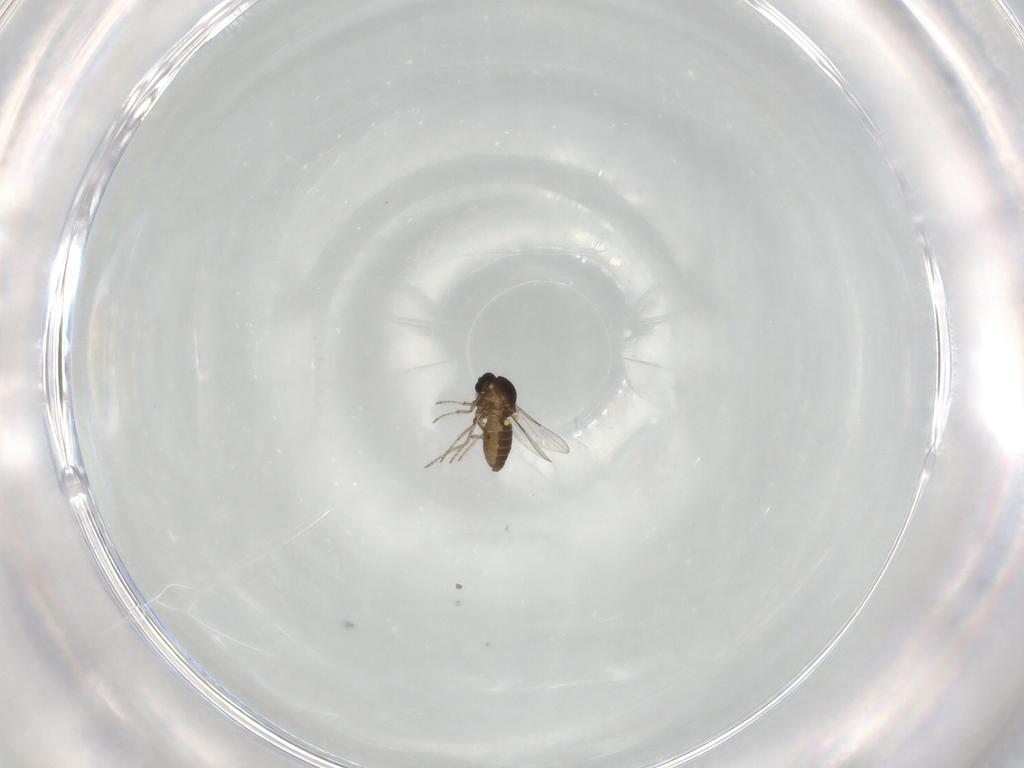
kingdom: Animalia
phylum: Arthropoda
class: Insecta
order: Diptera
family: Ceratopogonidae
